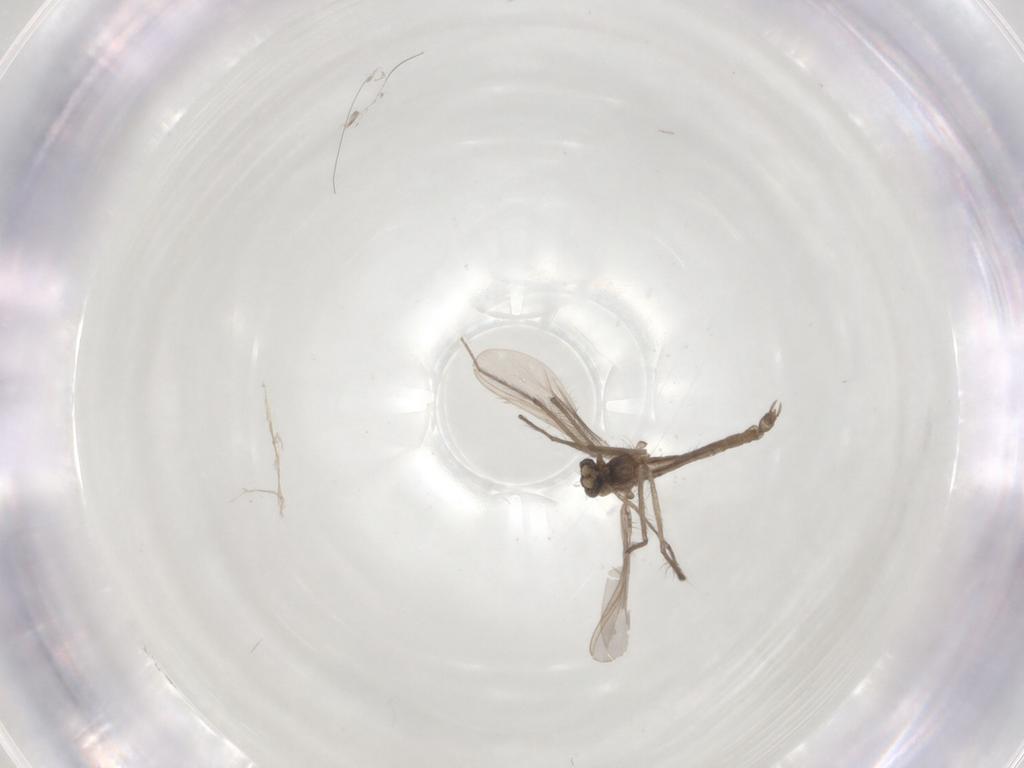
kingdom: Animalia
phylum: Arthropoda
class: Insecta
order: Diptera
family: Chironomidae
